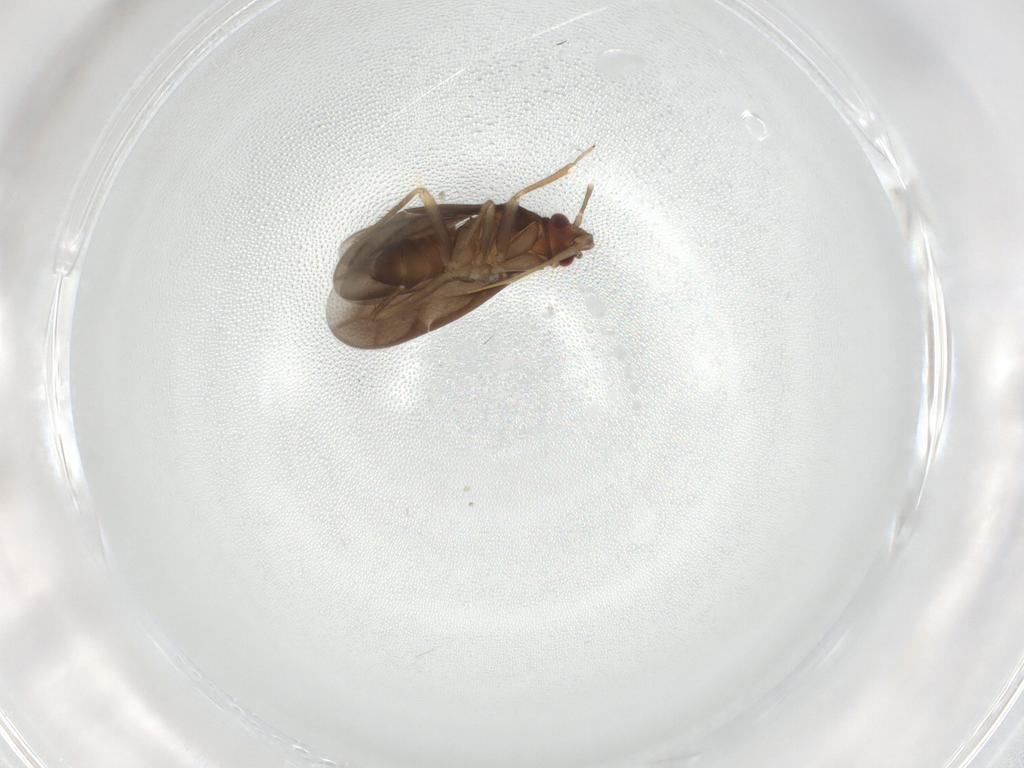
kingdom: Animalia
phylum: Arthropoda
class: Insecta
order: Hemiptera
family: Ceratocombidae
